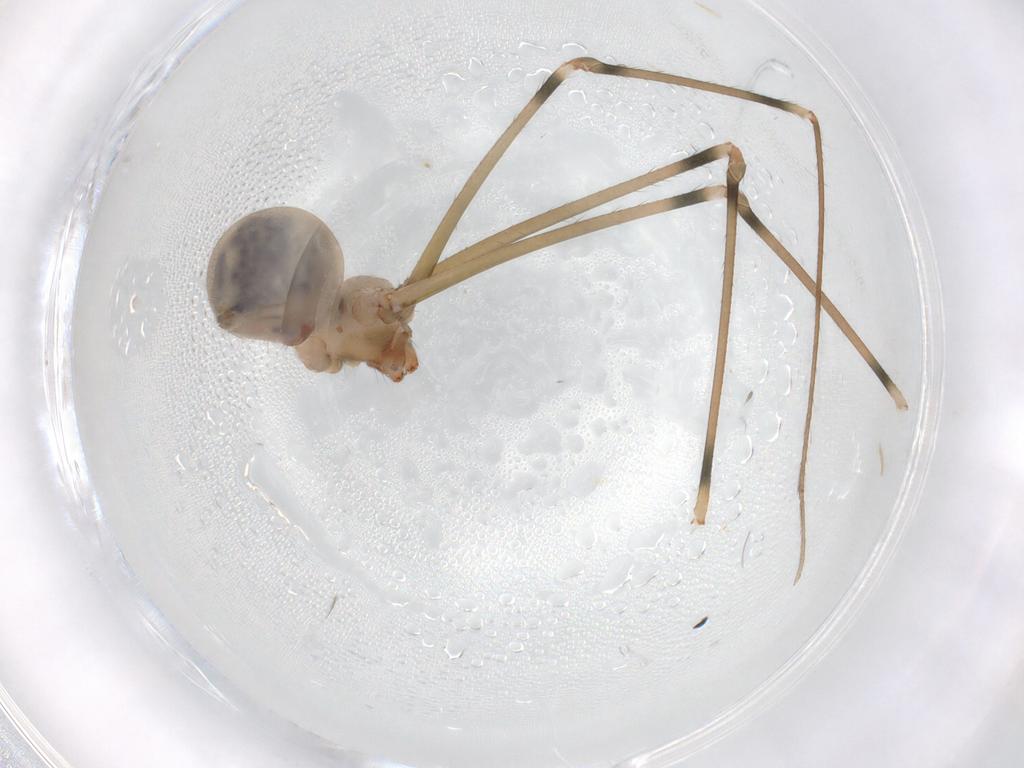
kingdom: Animalia
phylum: Arthropoda
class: Arachnida
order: Araneae
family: Pholcidae
